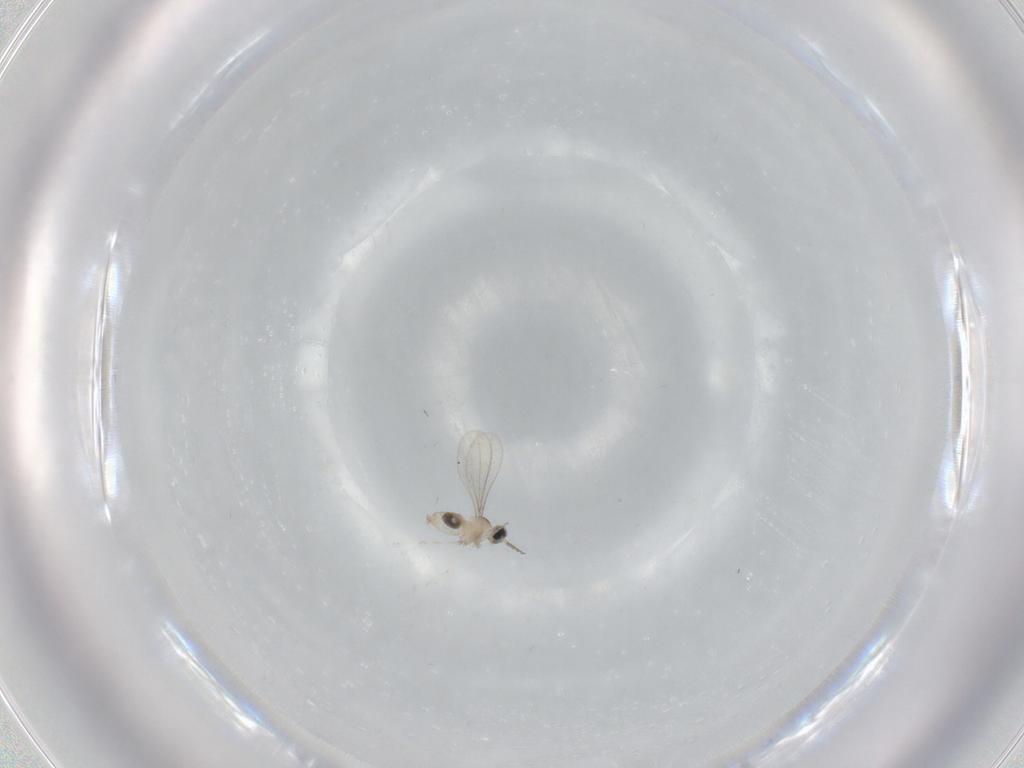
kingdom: Animalia
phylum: Arthropoda
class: Insecta
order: Diptera
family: Cecidomyiidae
